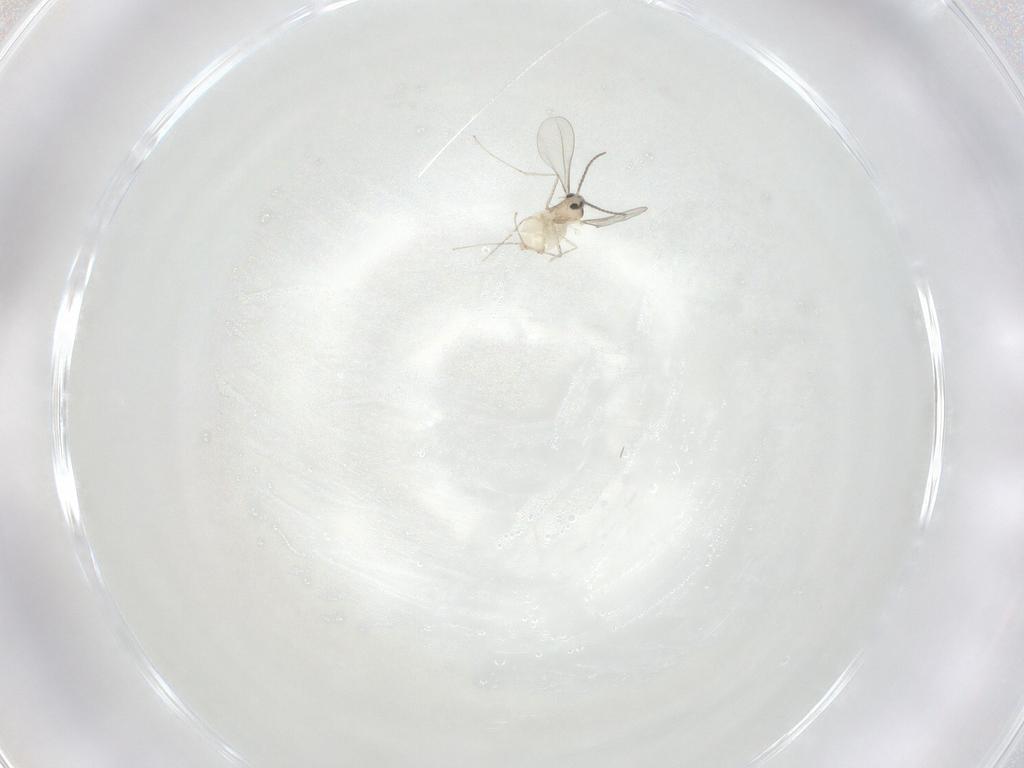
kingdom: Animalia
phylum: Arthropoda
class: Insecta
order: Diptera
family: Cecidomyiidae
